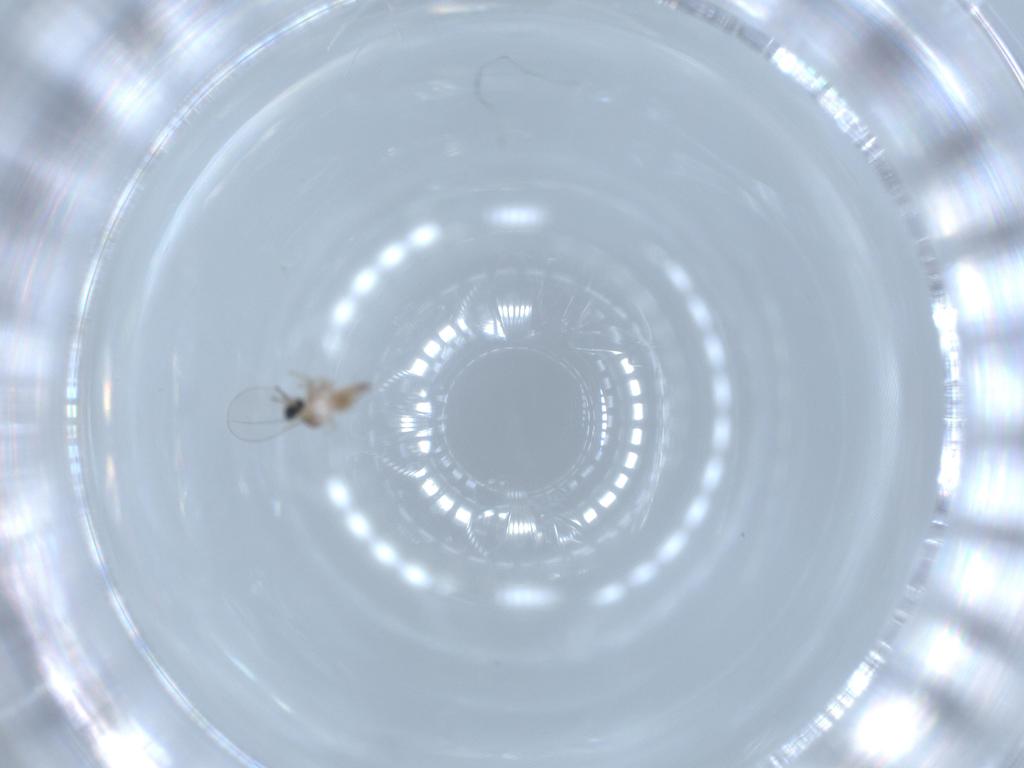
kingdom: Animalia
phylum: Arthropoda
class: Insecta
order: Diptera
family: Cecidomyiidae
